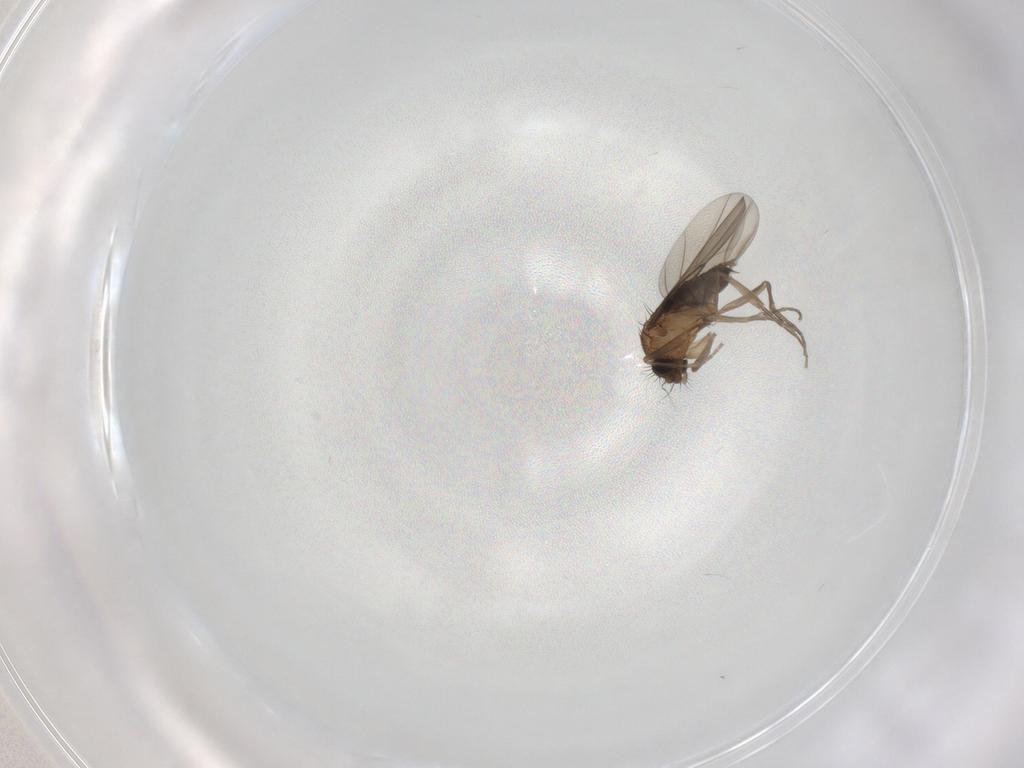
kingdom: Animalia
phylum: Arthropoda
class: Insecta
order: Diptera
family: Phoridae
